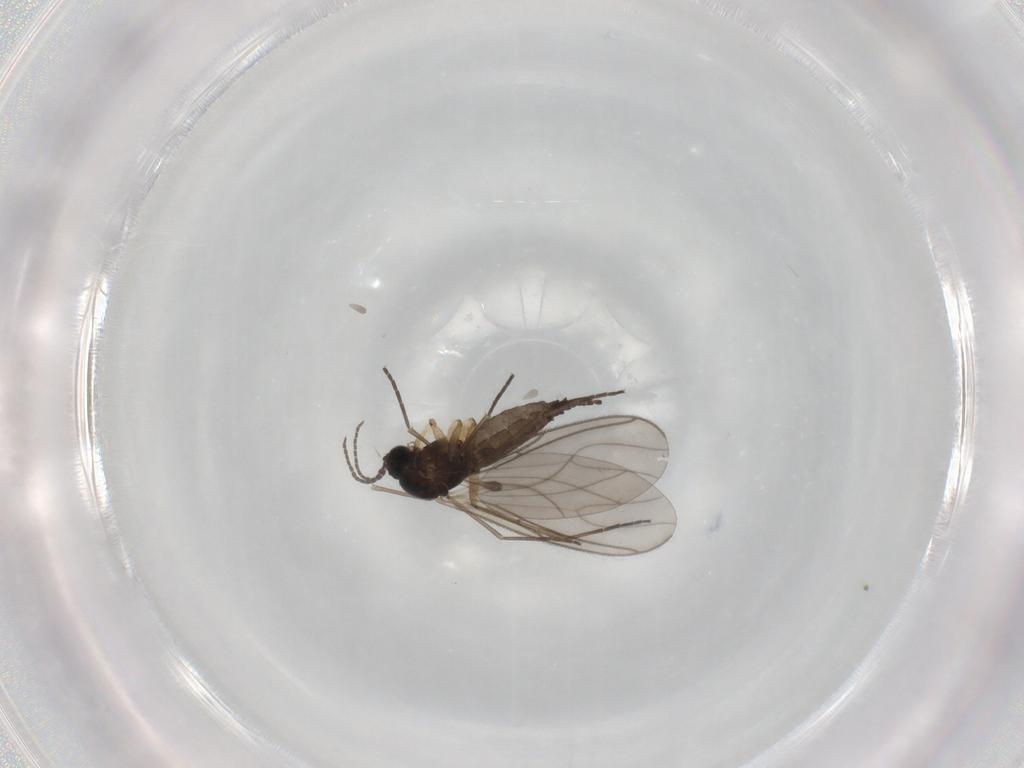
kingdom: Animalia
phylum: Arthropoda
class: Insecta
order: Diptera
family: Sciaridae
